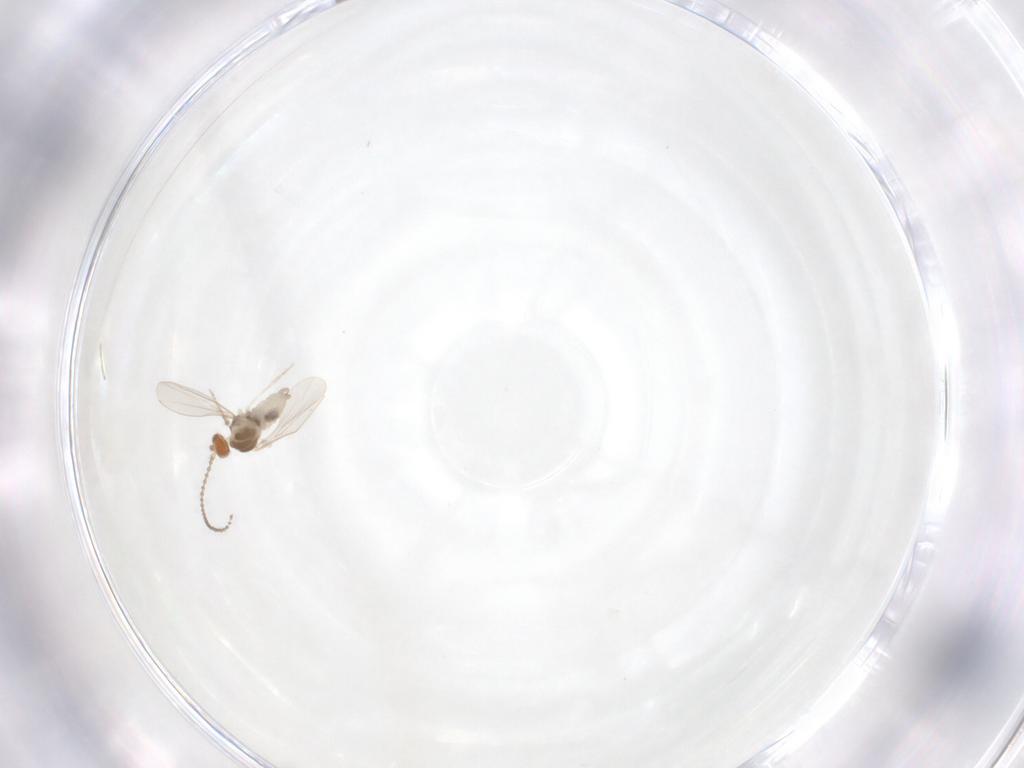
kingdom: Animalia
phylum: Arthropoda
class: Insecta
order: Diptera
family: Cecidomyiidae
